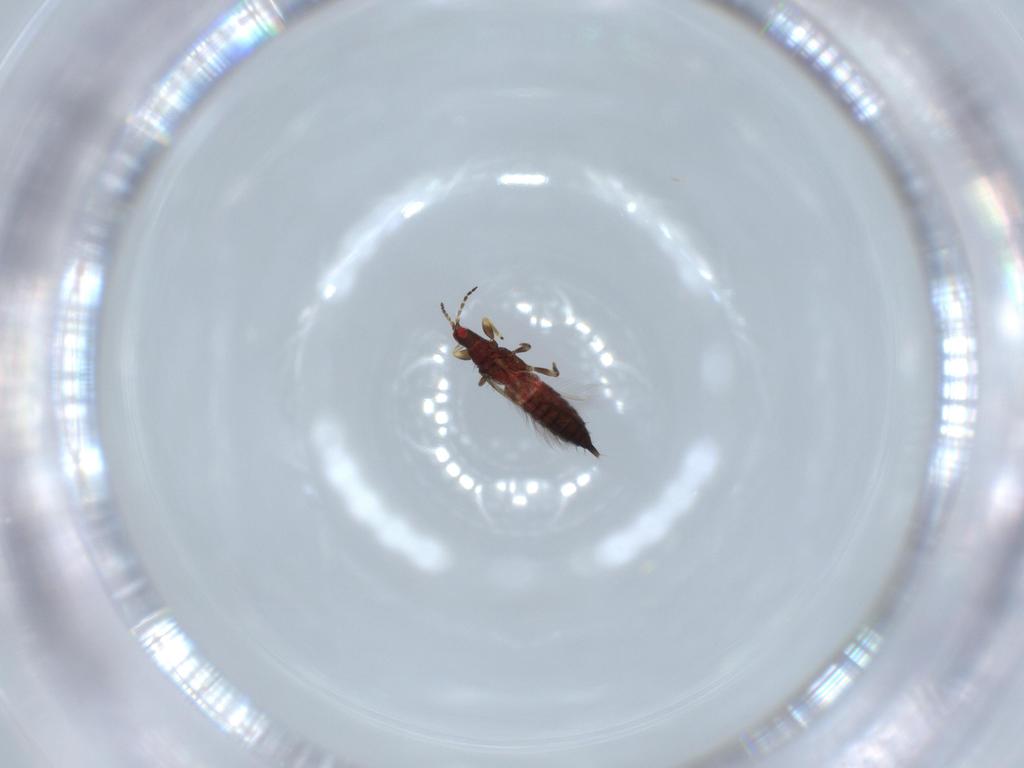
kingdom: Animalia
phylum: Arthropoda
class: Insecta
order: Thysanoptera
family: Phlaeothripidae
